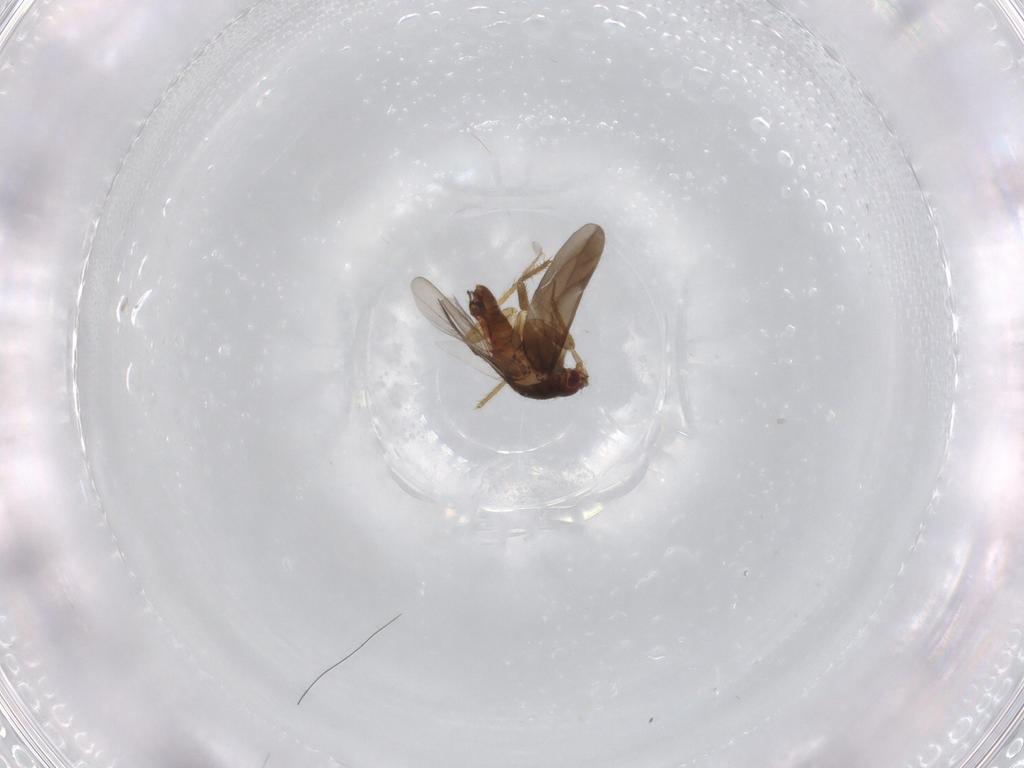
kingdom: Animalia
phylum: Arthropoda
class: Insecta
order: Hemiptera
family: Ceratocombidae
